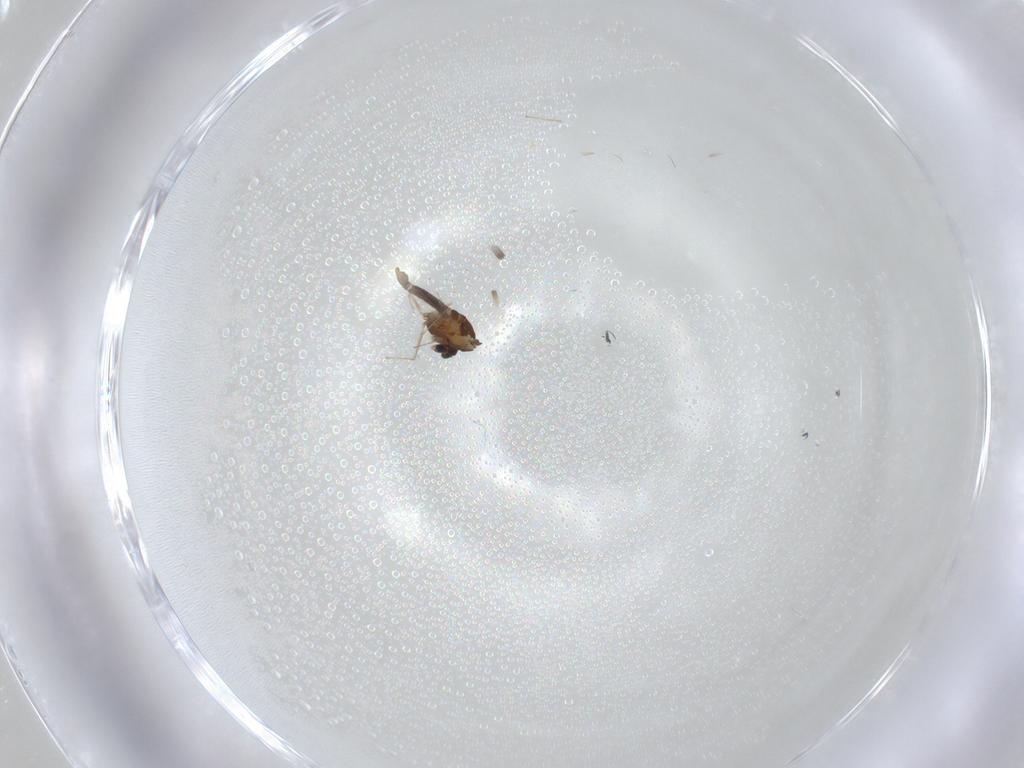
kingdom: Animalia
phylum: Arthropoda
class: Insecta
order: Diptera
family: Chironomidae
